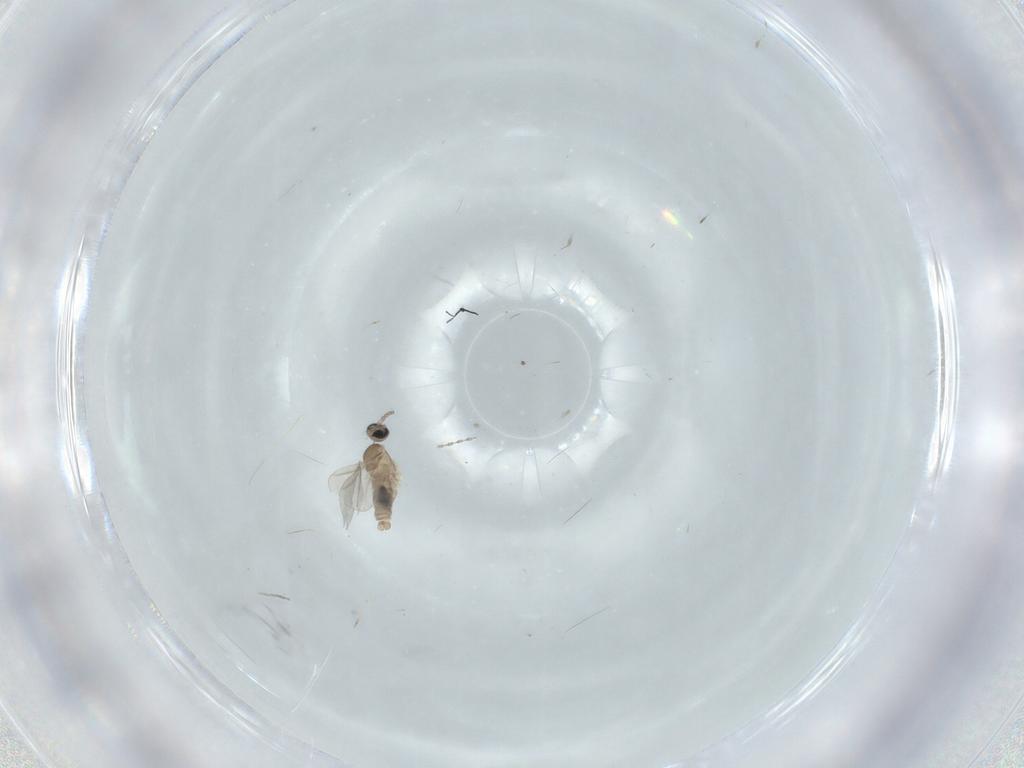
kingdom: Animalia
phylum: Arthropoda
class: Insecta
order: Diptera
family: Cecidomyiidae
